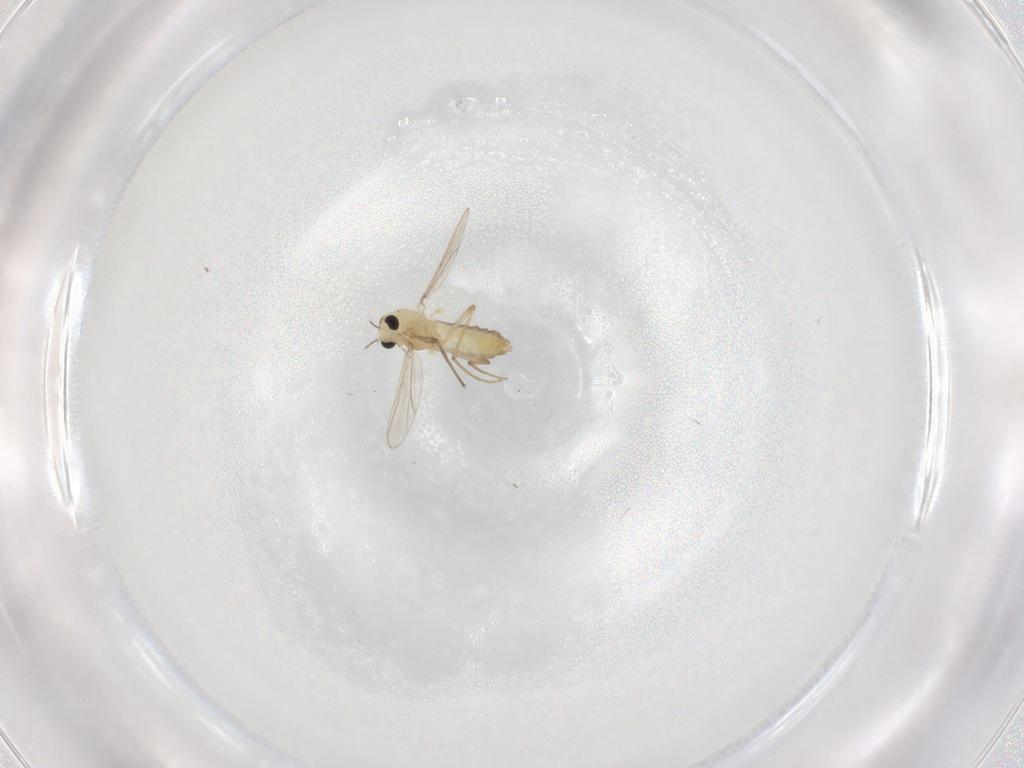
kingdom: Animalia
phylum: Arthropoda
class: Insecta
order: Diptera
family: Chironomidae
